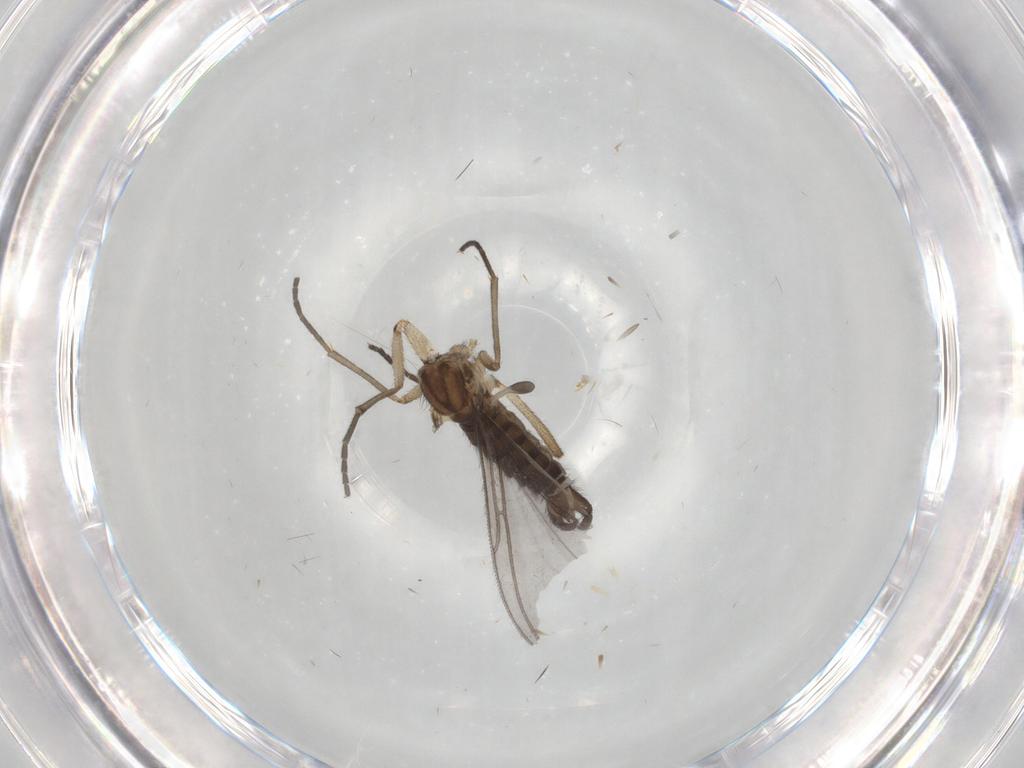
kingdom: Animalia
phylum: Arthropoda
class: Insecta
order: Diptera
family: Sciaridae
